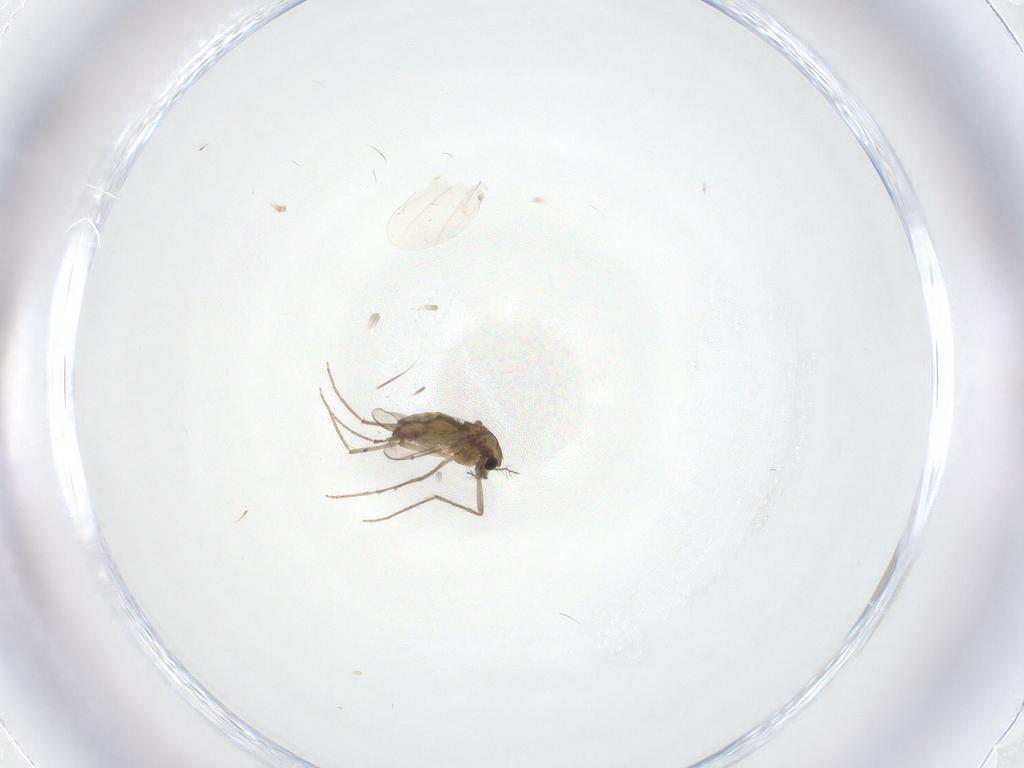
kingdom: Animalia
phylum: Arthropoda
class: Insecta
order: Diptera
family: Chironomidae
